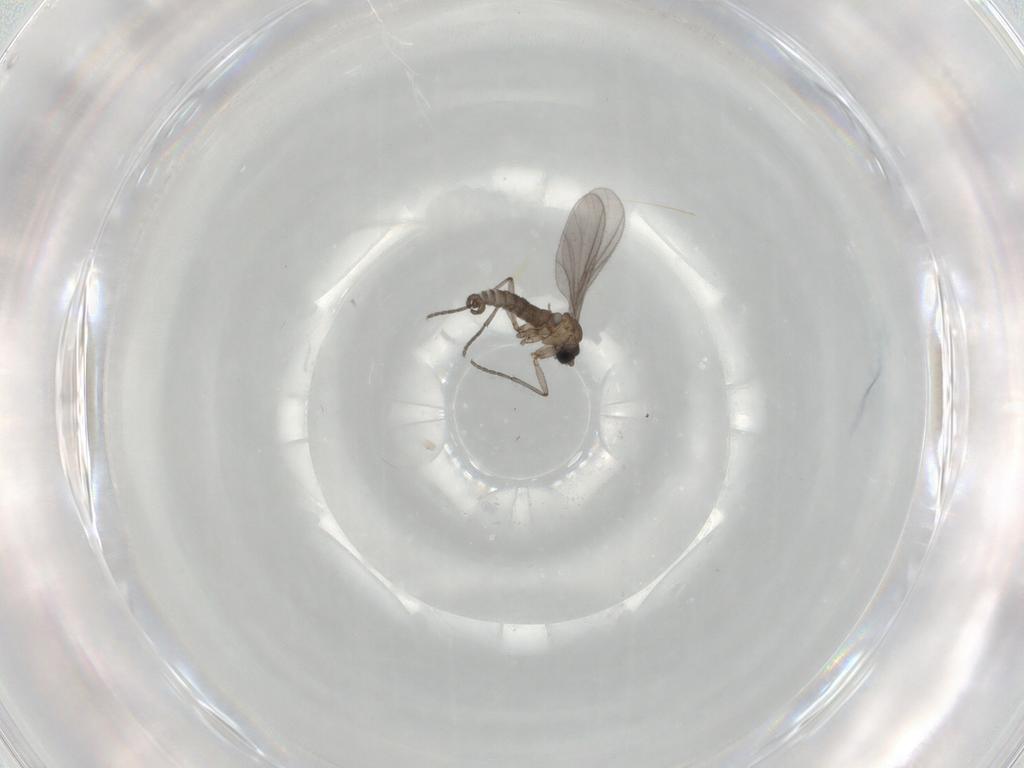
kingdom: Animalia
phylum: Arthropoda
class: Insecta
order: Diptera
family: Sciaridae
